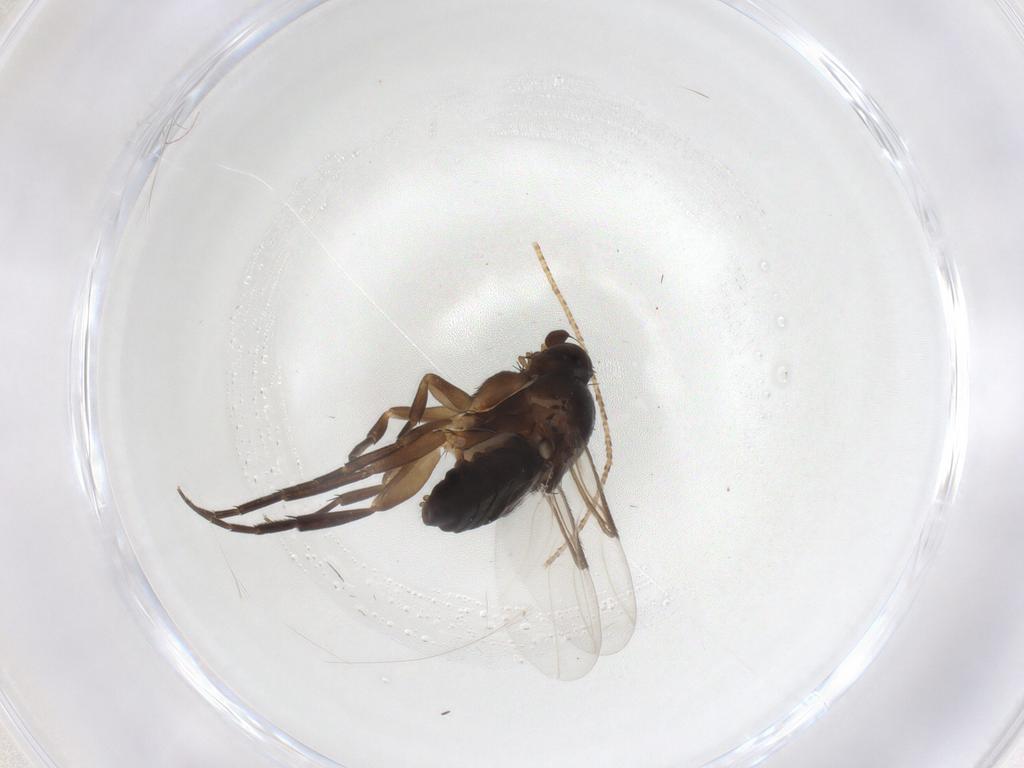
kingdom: Animalia
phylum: Arthropoda
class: Insecta
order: Diptera
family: Phoridae
